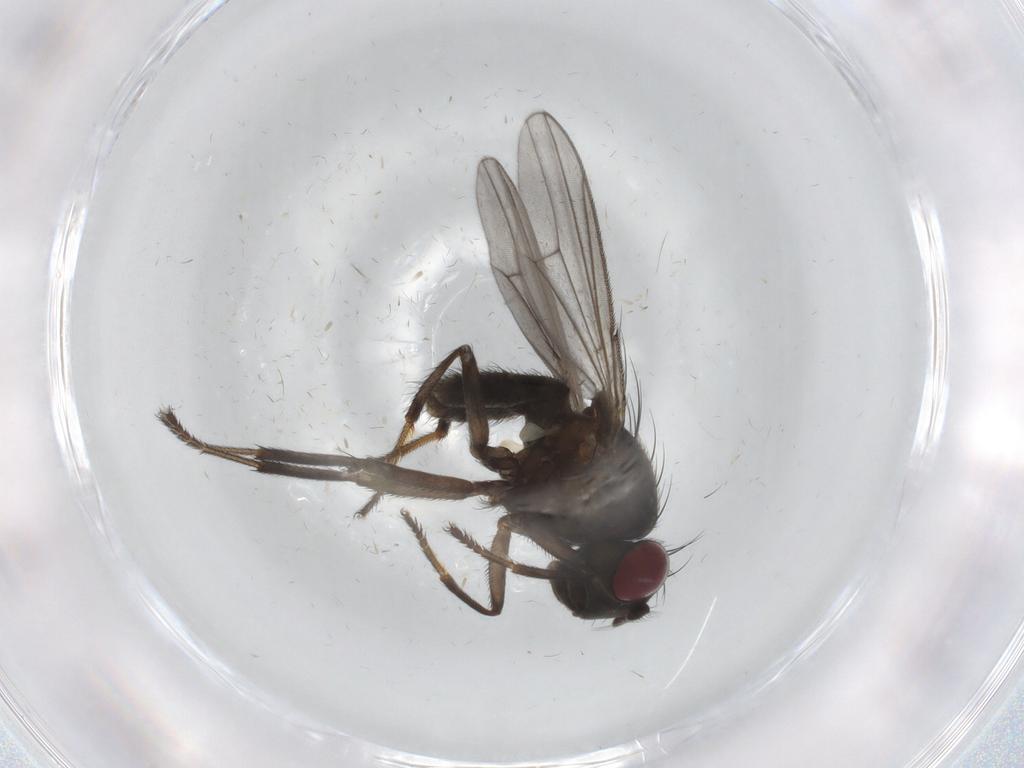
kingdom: Animalia
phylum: Arthropoda
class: Insecta
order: Diptera
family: Ephydridae
